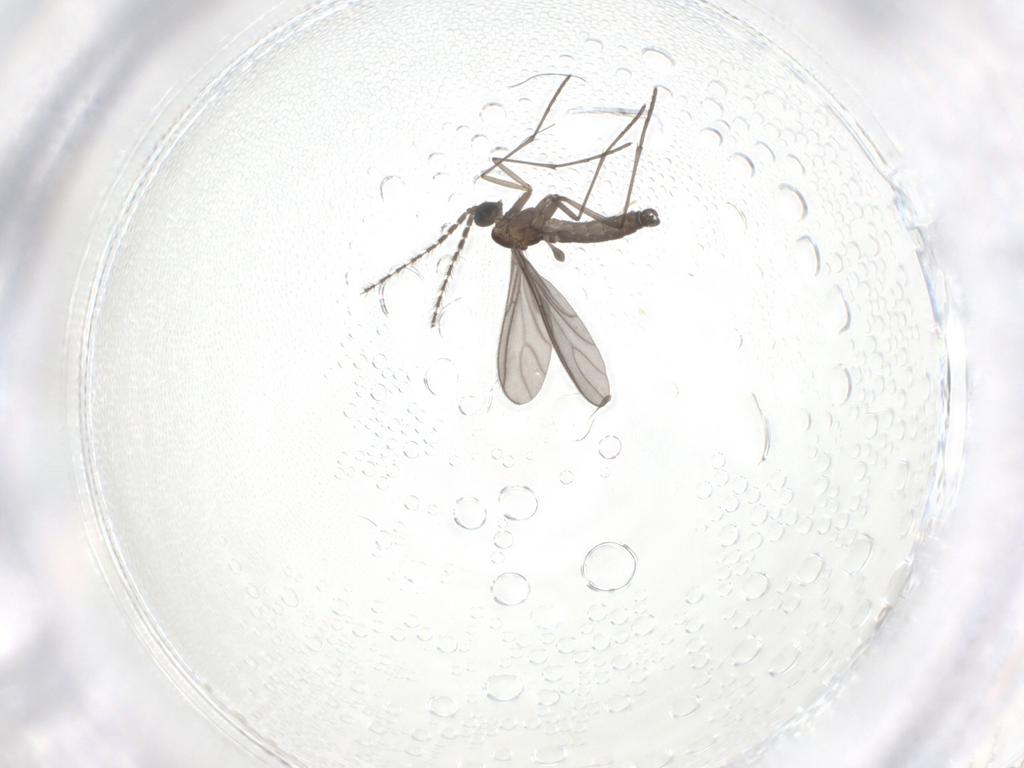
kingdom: Animalia
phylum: Arthropoda
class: Insecta
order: Diptera
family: Sciaridae
